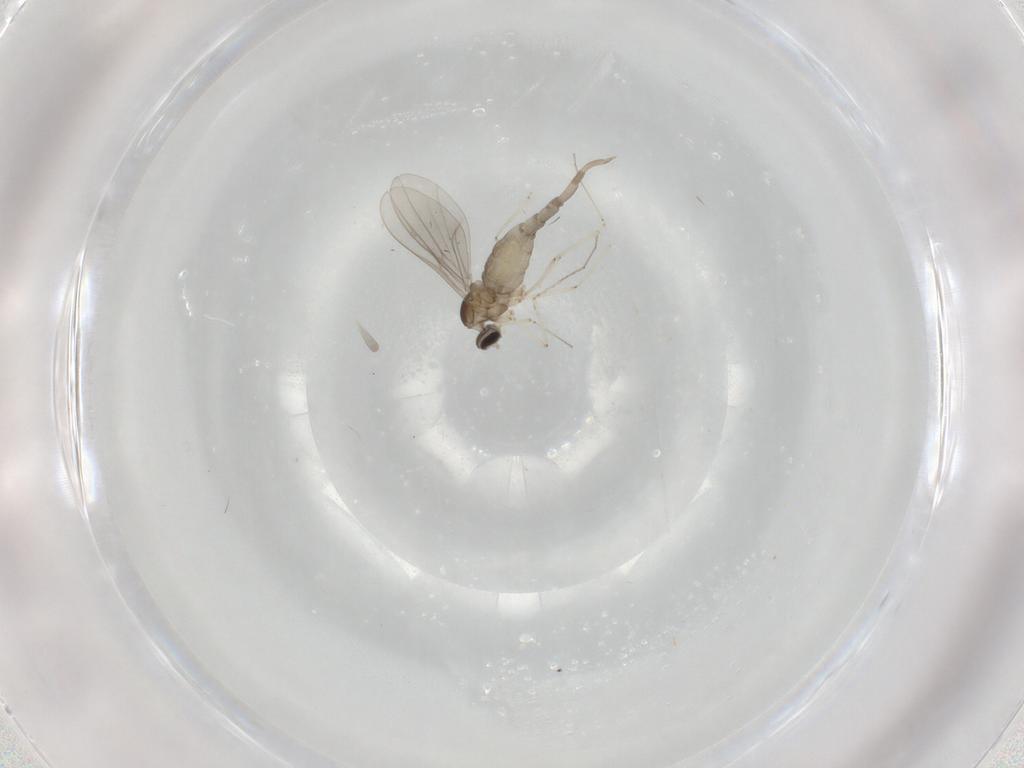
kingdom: Animalia
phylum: Arthropoda
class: Insecta
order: Diptera
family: Cecidomyiidae
